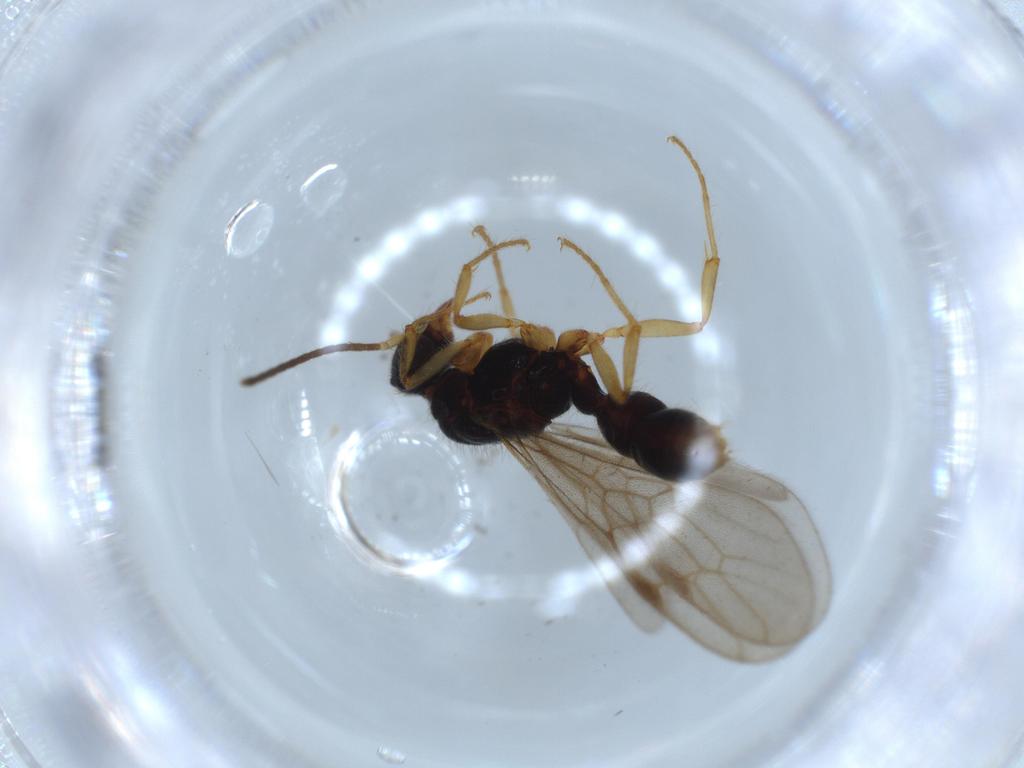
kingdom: Animalia
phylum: Arthropoda
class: Insecta
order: Hymenoptera
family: Formicidae
